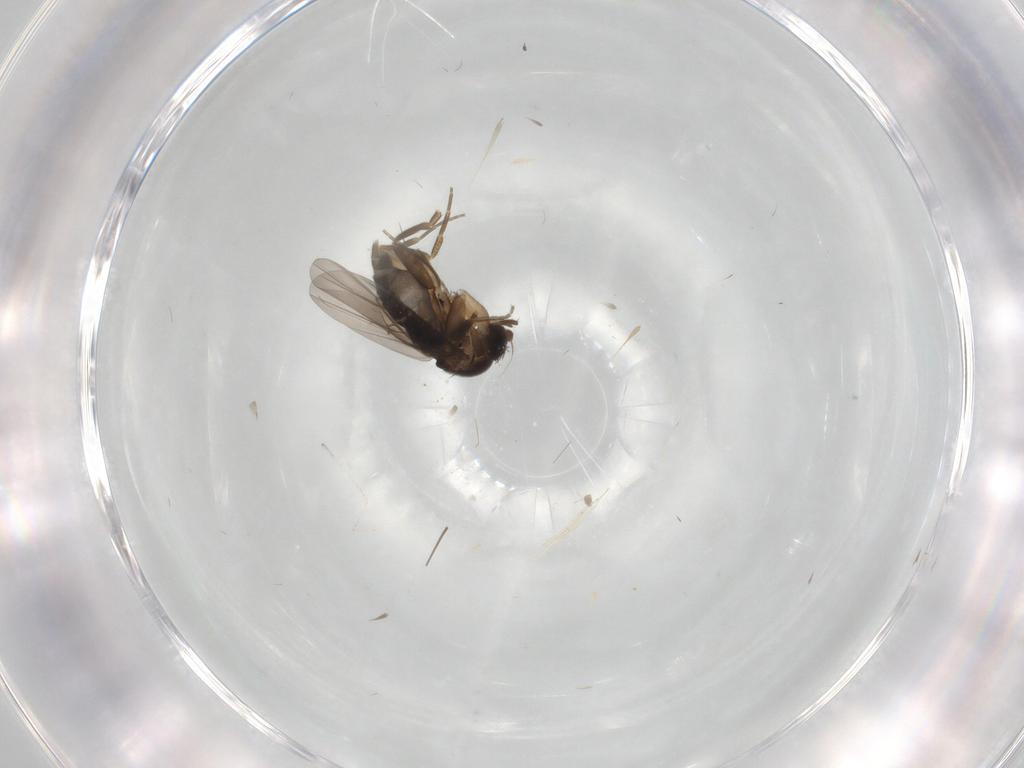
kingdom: Animalia
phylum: Arthropoda
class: Insecta
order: Diptera
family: Phoridae
